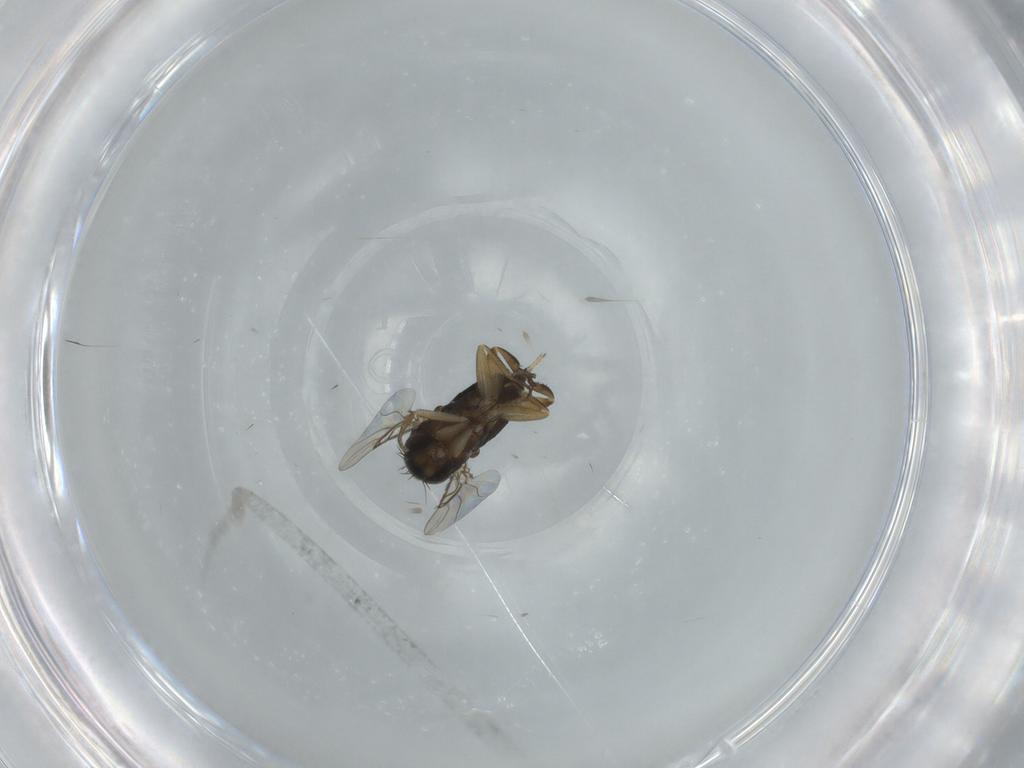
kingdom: Animalia
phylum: Arthropoda
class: Insecta
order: Diptera
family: Phoridae
